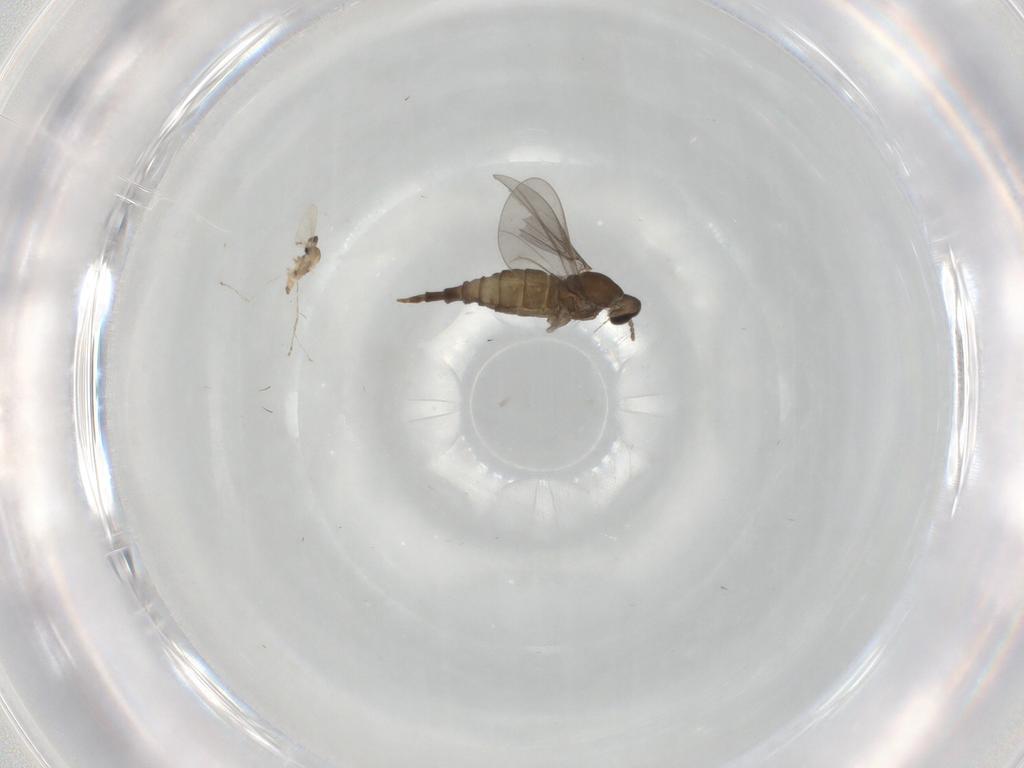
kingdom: Animalia
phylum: Arthropoda
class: Insecta
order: Diptera
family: Cecidomyiidae
